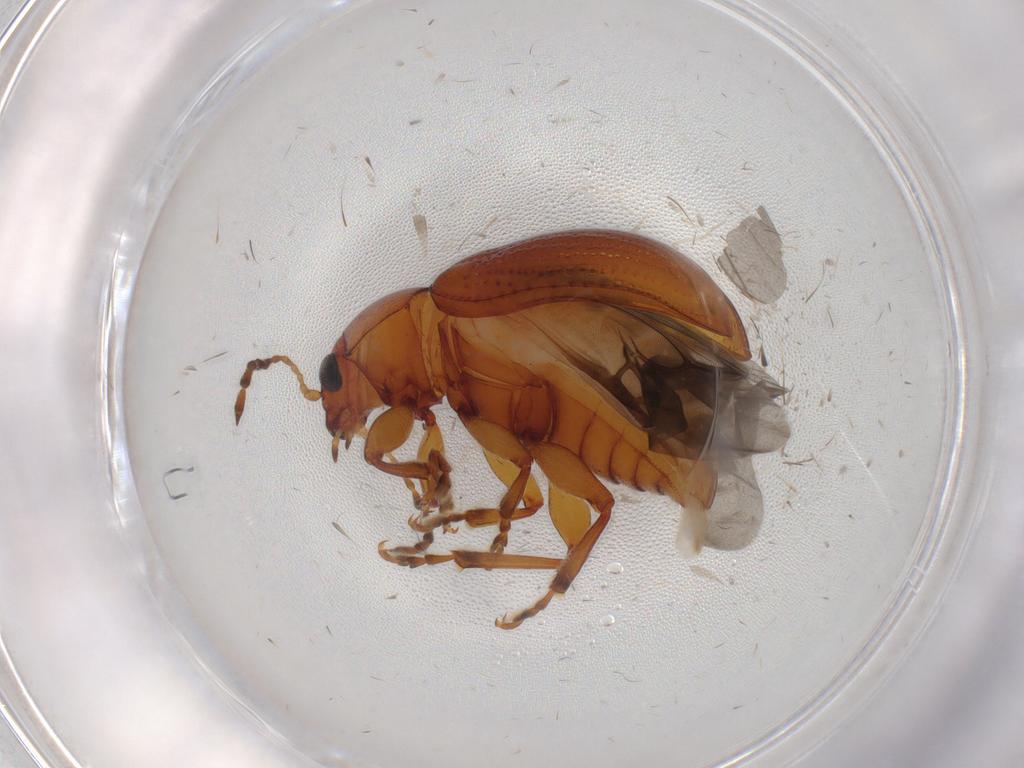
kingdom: Animalia
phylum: Arthropoda
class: Insecta
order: Coleoptera
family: Chrysomelidae
